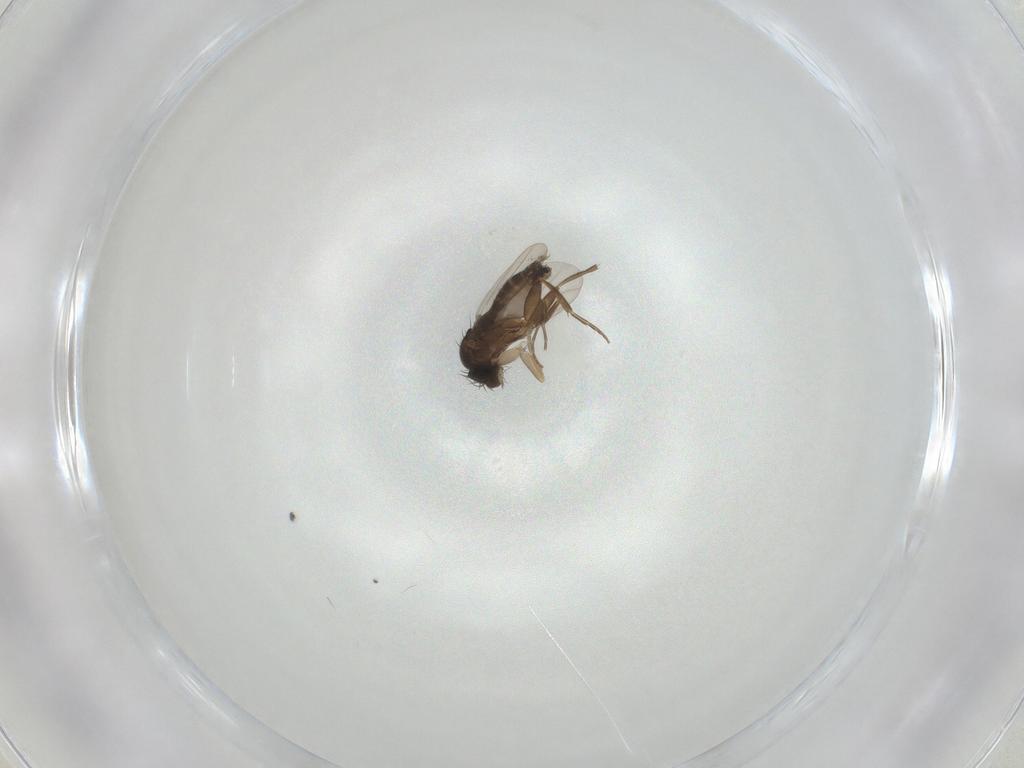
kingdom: Animalia
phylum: Arthropoda
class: Insecta
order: Diptera
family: Phoridae
